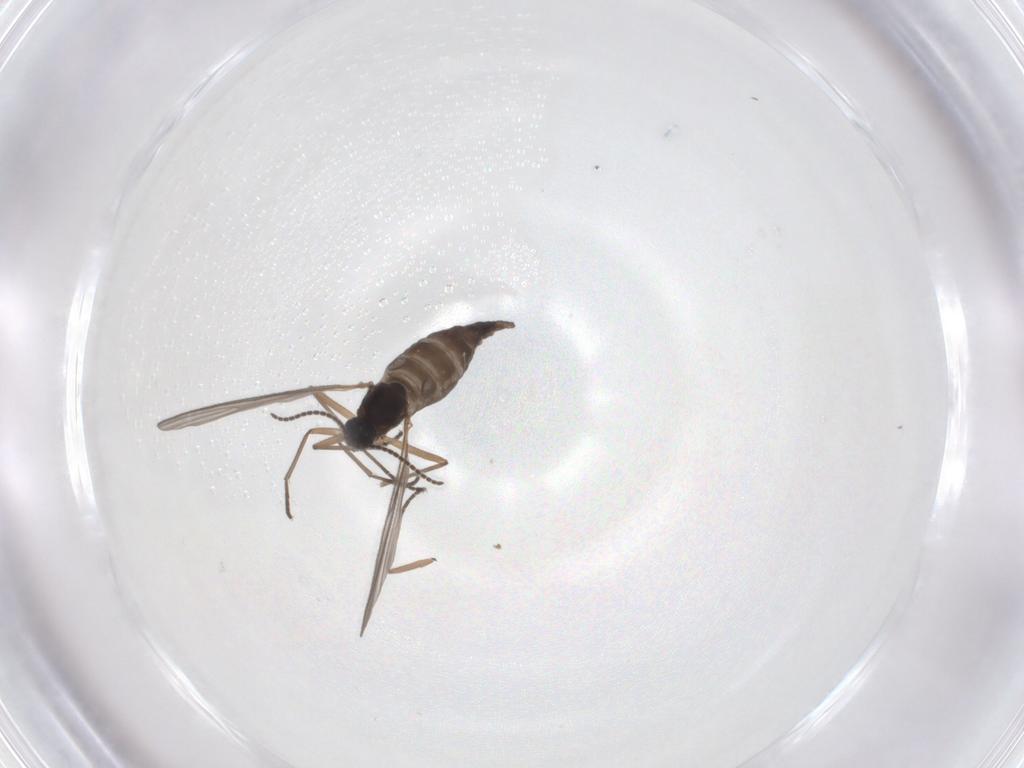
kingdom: Animalia
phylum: Arthropoda
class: Insecta
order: Diptera
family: Sciaridae
